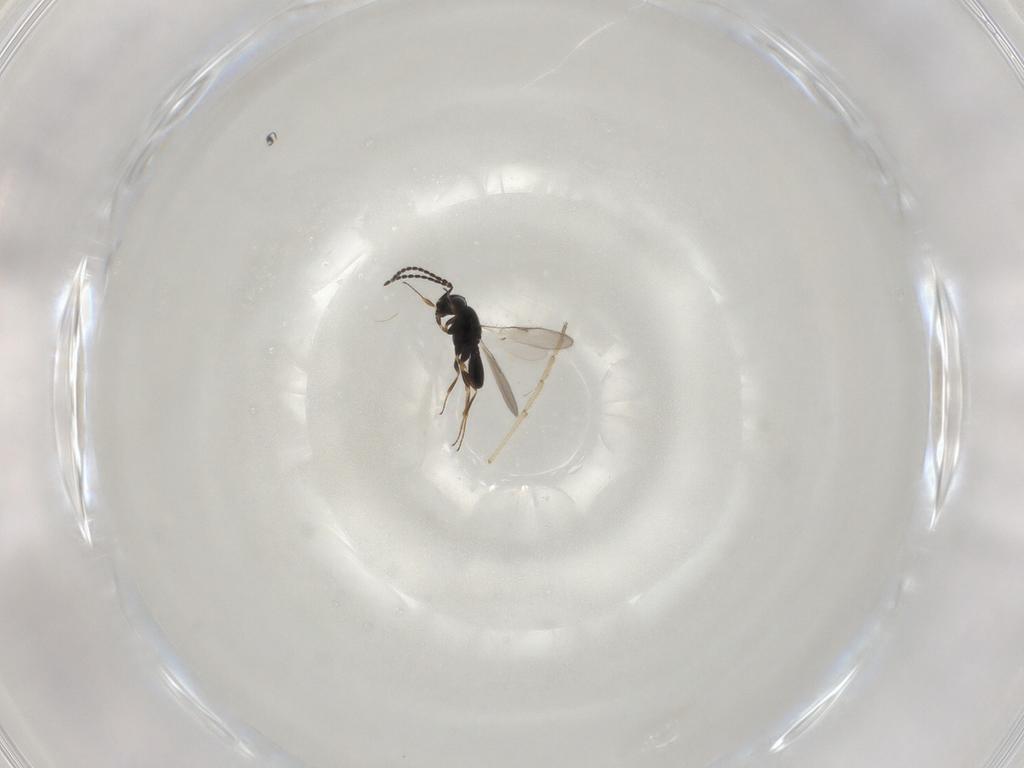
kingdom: Animalia
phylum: Arthropoda
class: Insecta
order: Hymenoptera
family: Scelionidae
